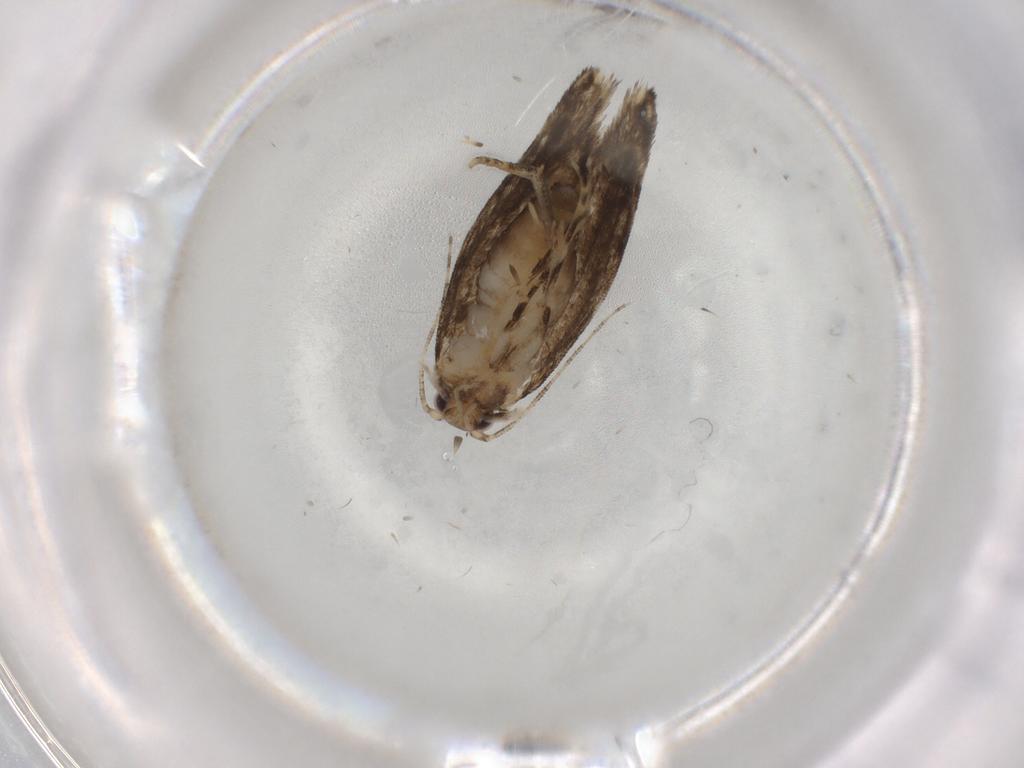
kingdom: Animalia
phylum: Arthropoda
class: Insecta
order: Lepidoptera
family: Tineidae
